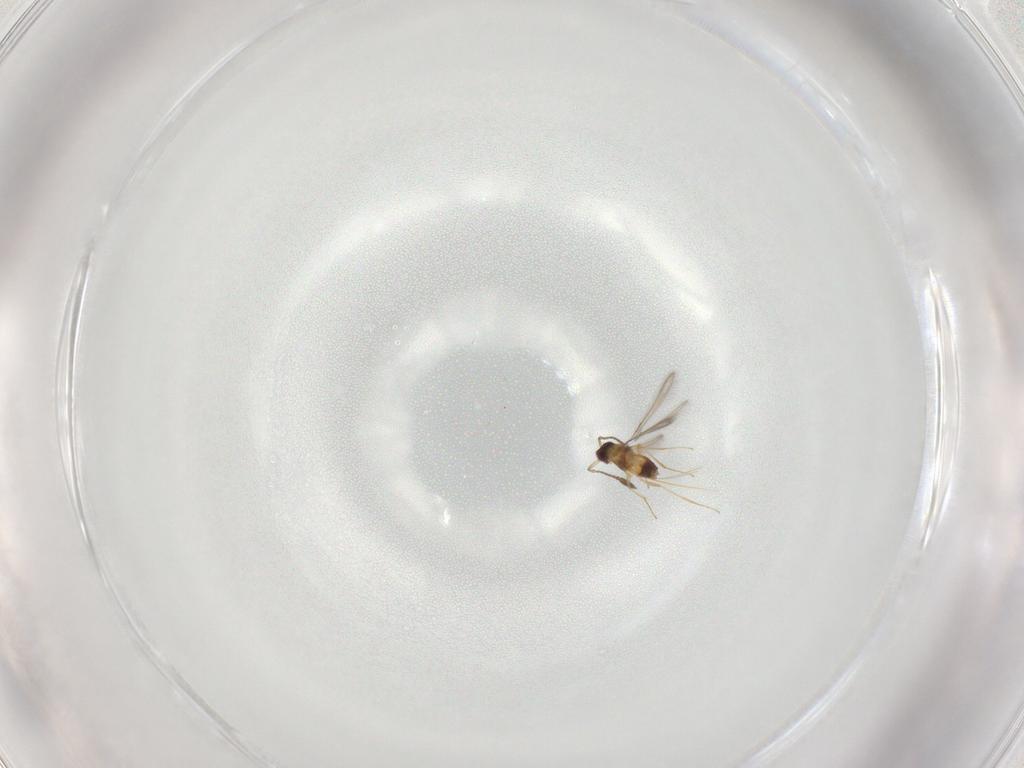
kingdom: Animalia
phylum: Arthropoda
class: Insecta
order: Hymenoptera
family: Mymaridae
